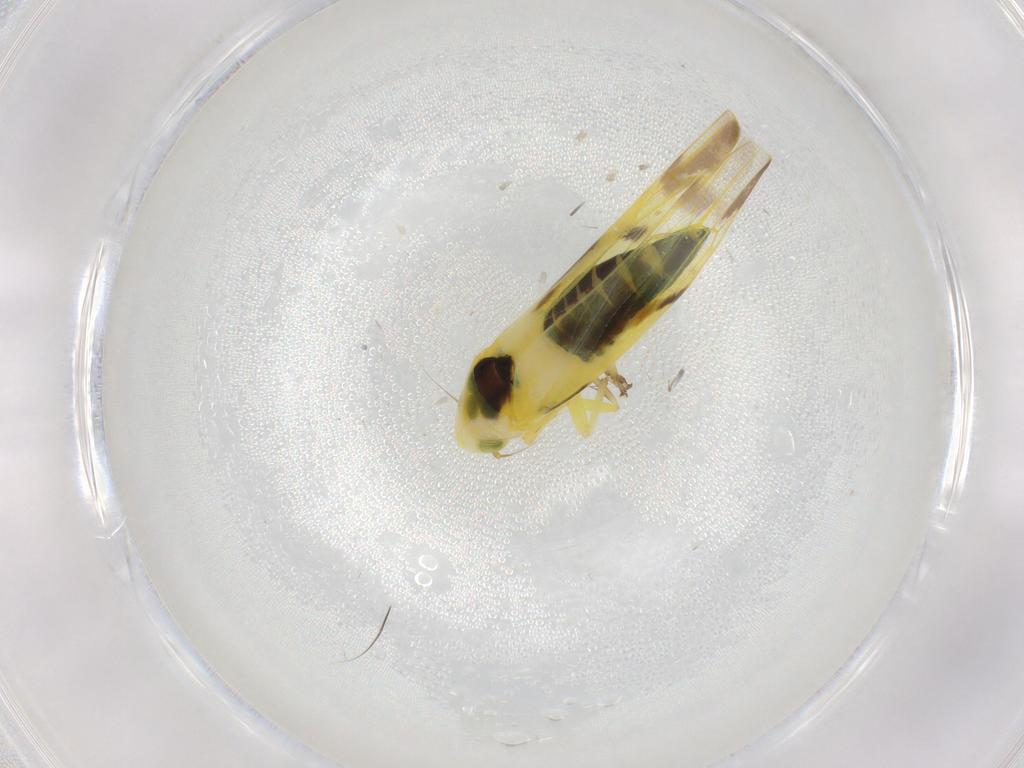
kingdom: Animalia
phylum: Arthropoda
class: Insecta
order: Hemiptera
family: Cicadellidae
